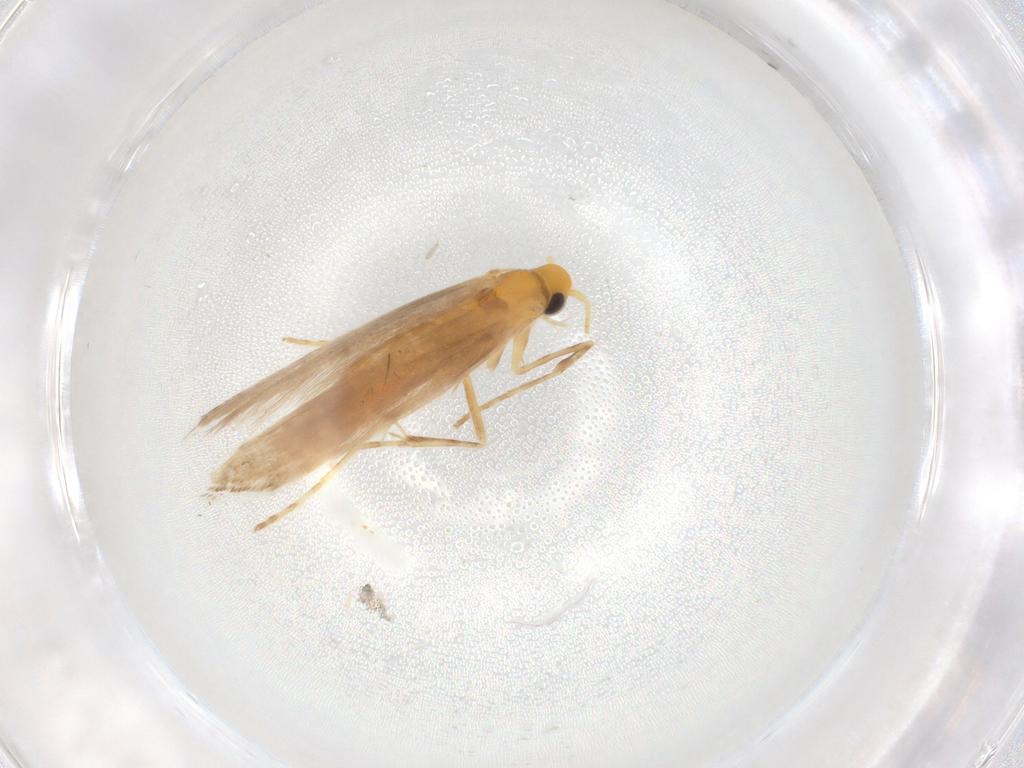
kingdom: Animalia
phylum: Arthropoda
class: Insecta
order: Lepidoptera
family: Gracillariidae
